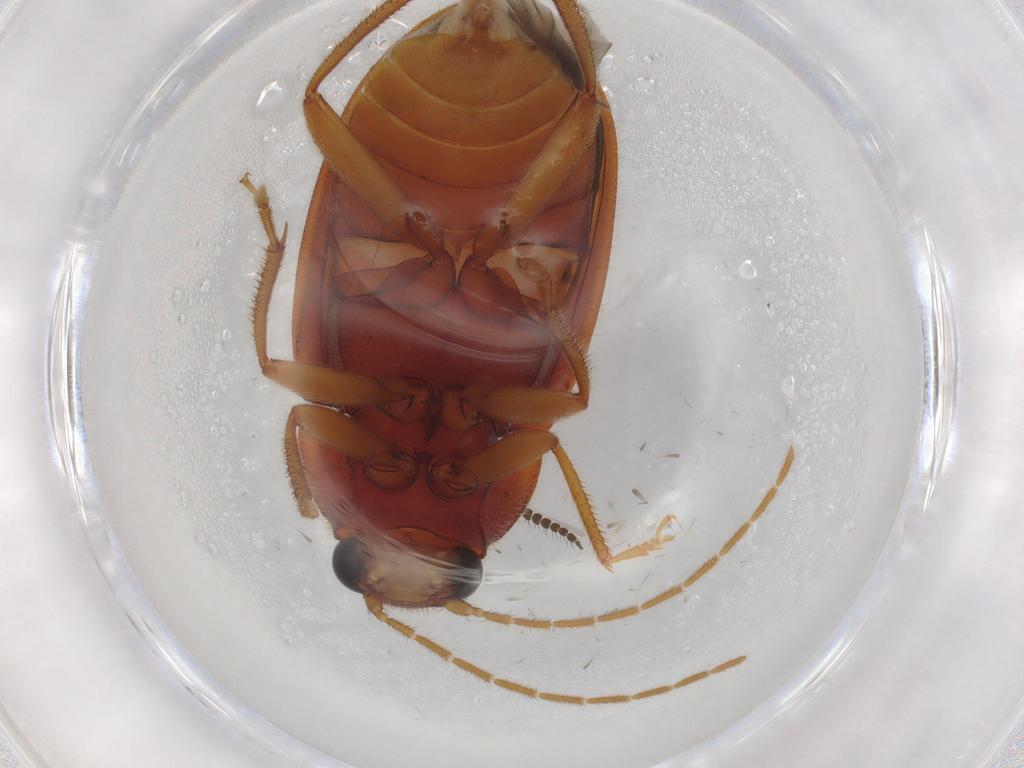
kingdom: Animalia
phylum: Arthropoda
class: Insecta
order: Coleoptera
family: Ptilodactylidae
